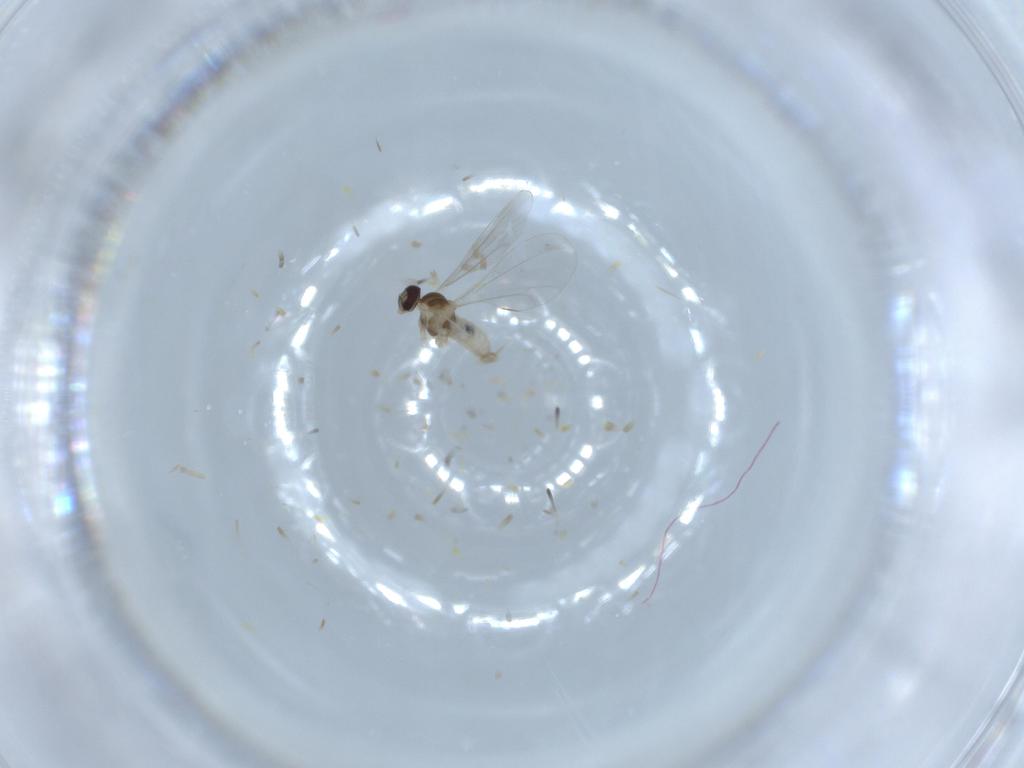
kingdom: Animalia
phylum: Arthropoda
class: Insecta
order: Diptera
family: Cecidomyiidae
